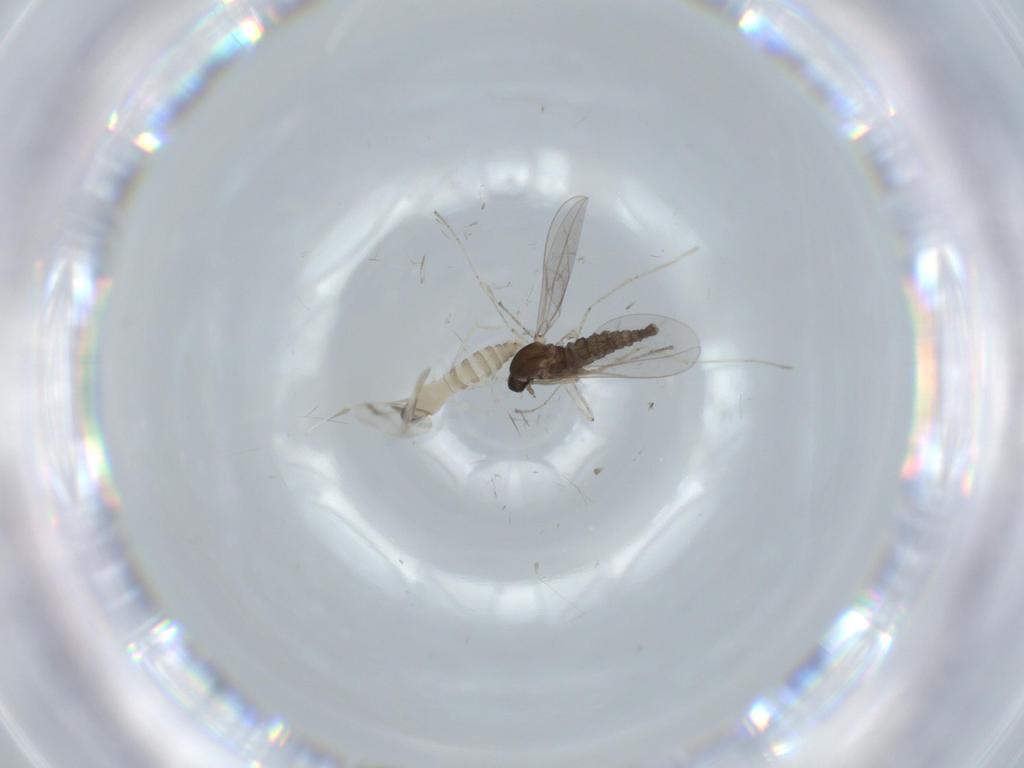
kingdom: Animalia
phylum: Arthropoda
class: Insecta
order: Diptera
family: Cecidomyiidae
